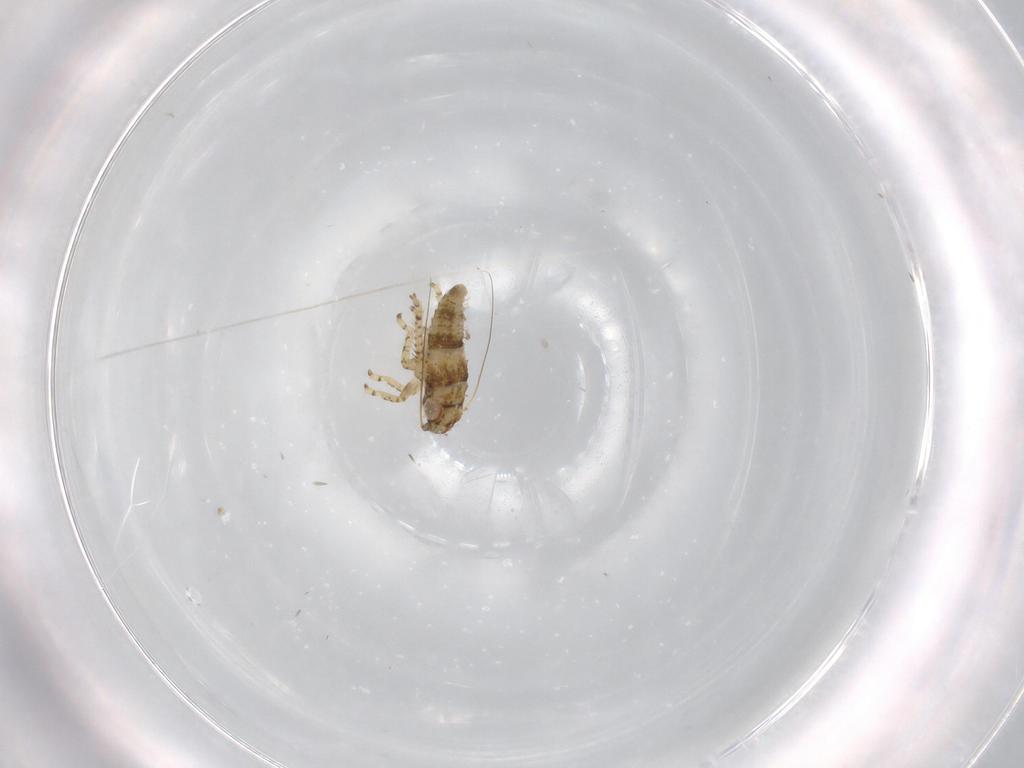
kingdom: Animalia
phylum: Arthropoda
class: Insecta
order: Hemiptera
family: Cicadellidae
